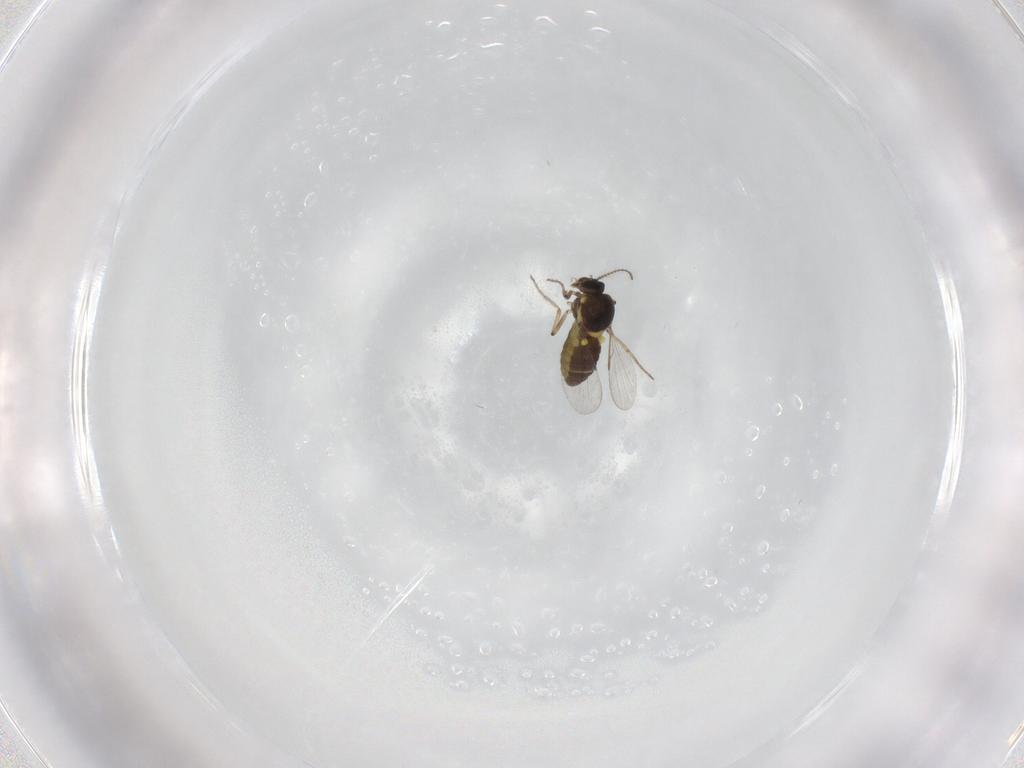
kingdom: Animalia
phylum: Arthropoda
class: Insecta
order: Diptera
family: Ceratopogonidae
